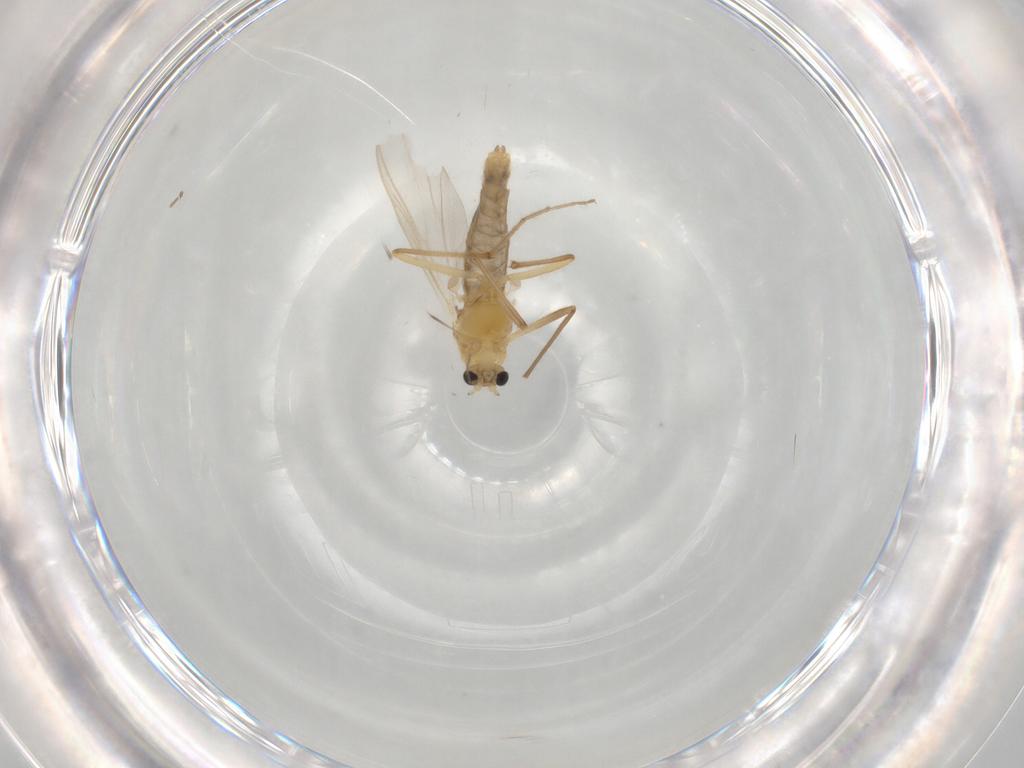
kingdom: Animalia
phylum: Arthropoda
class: Insecta
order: Diptera
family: Chironomidae
